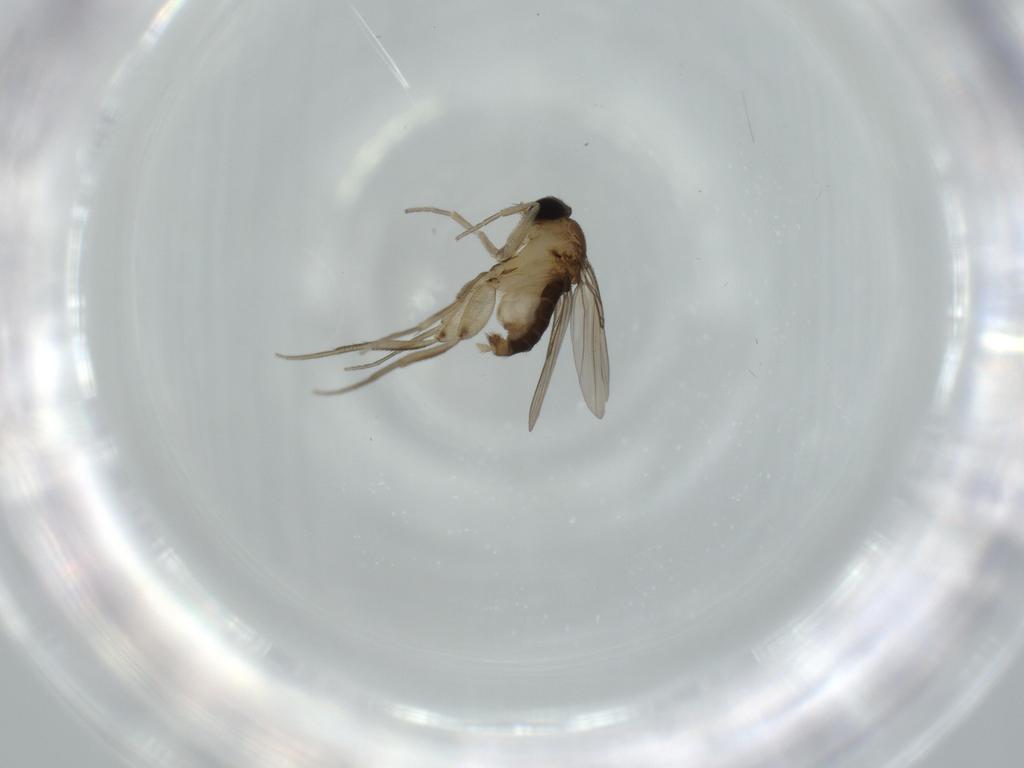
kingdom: Animalia
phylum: Arthropoda
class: Insecta
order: Diptera
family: Phoridae
